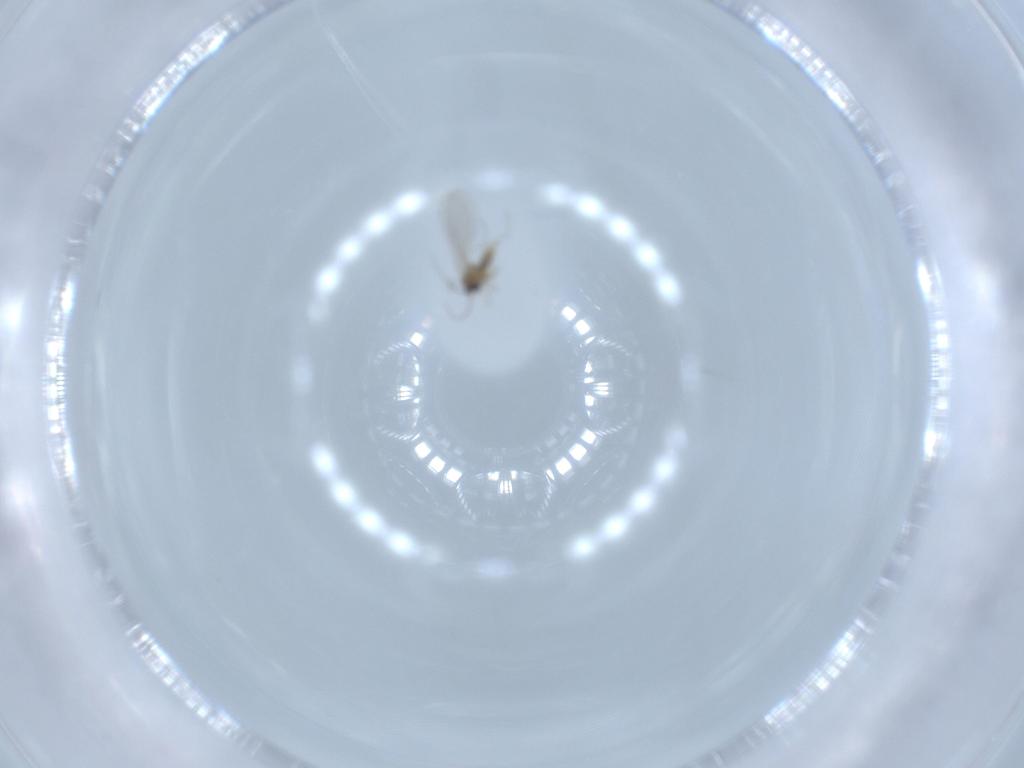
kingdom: Animalia
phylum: Arthropoda
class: Insecta
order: Diptera
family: Cecidomyiidae
